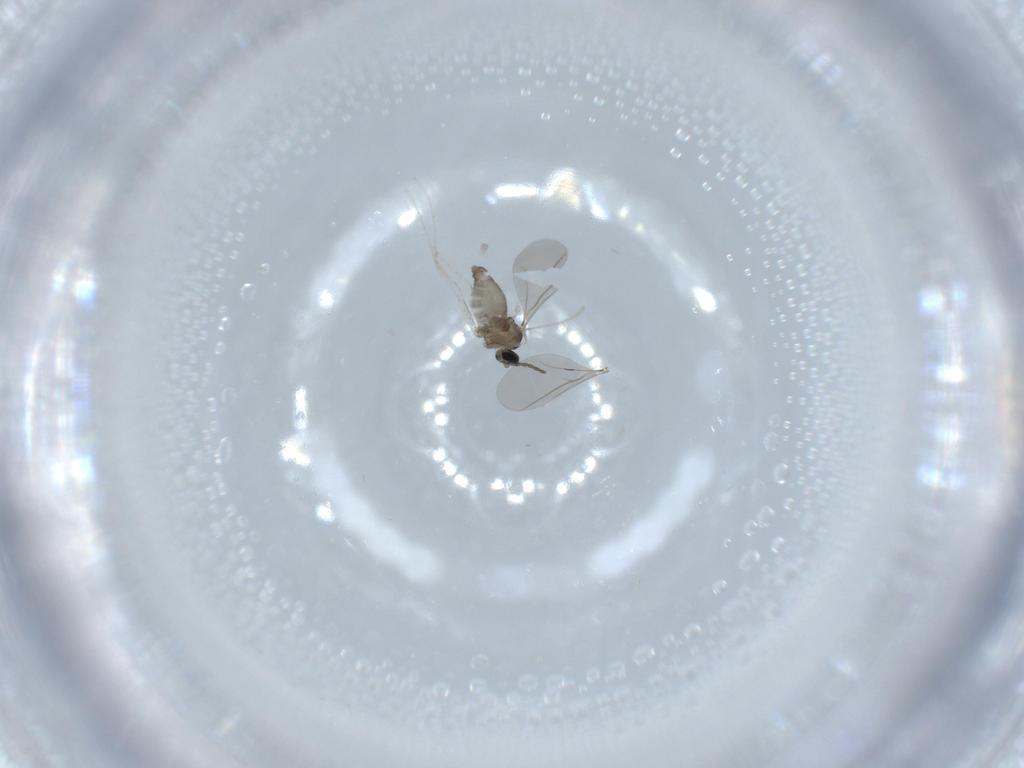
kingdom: Animalia
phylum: Arthropoda
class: Insecta
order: Diptera
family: Cecidomyiidae
